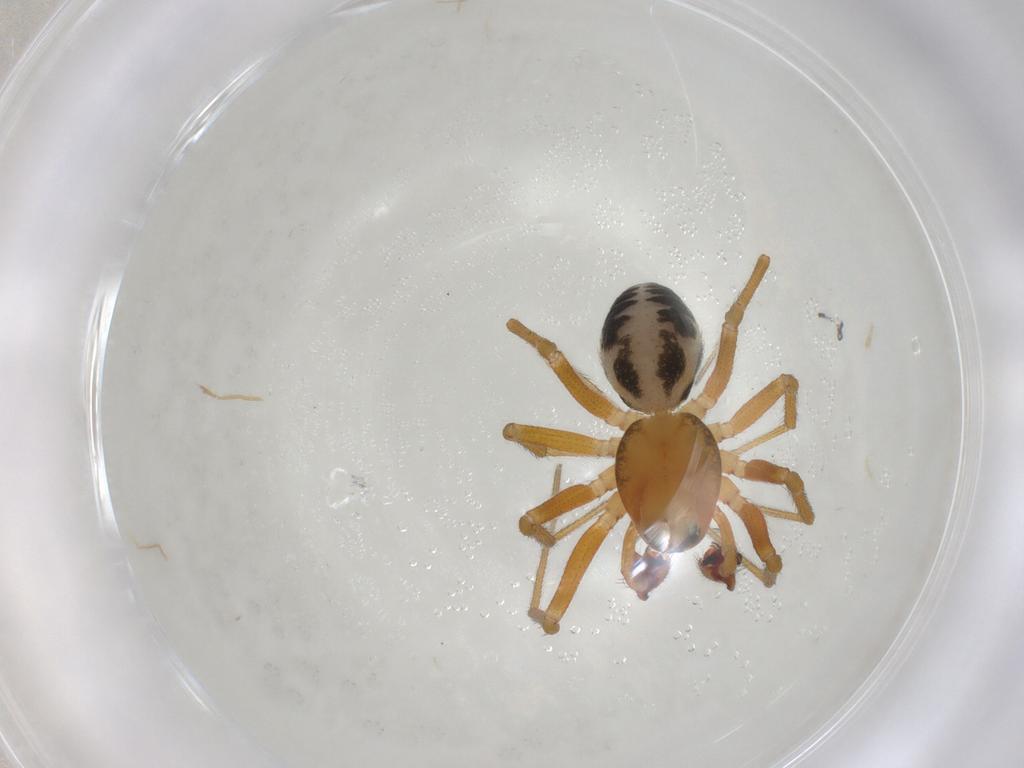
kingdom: Animalia
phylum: Arthropoda
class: Arachnida
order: Araneae
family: Linyphiidae
